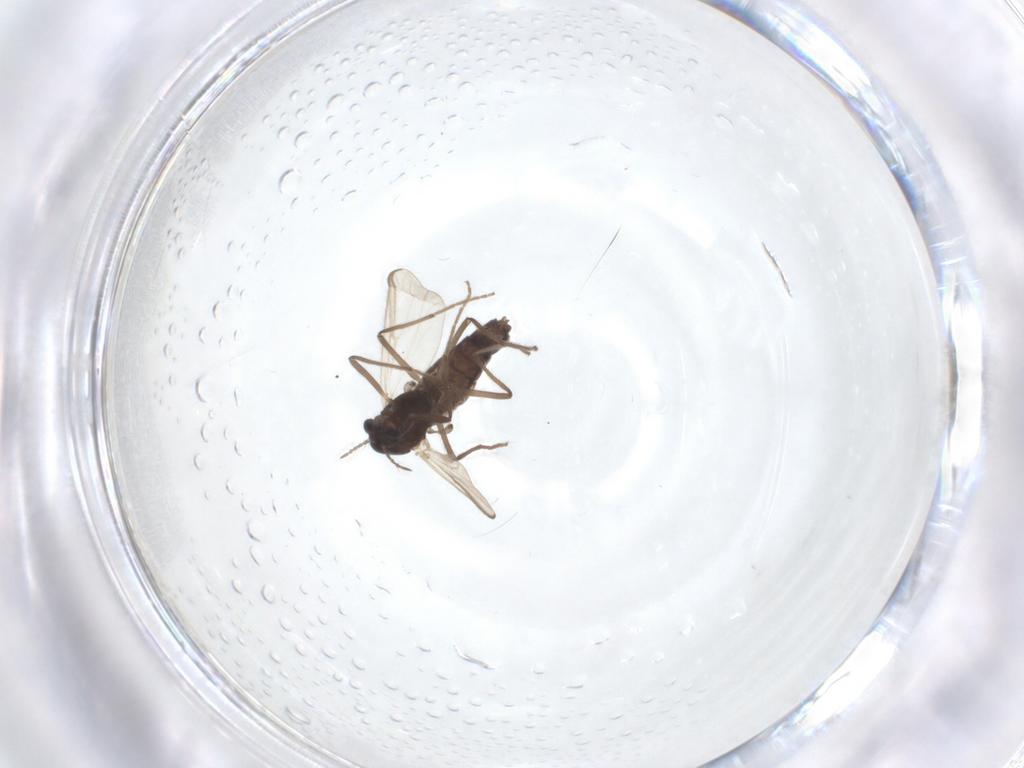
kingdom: Animalia
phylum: Arthropoda
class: Insecta
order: Diptera
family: Chironomidae
